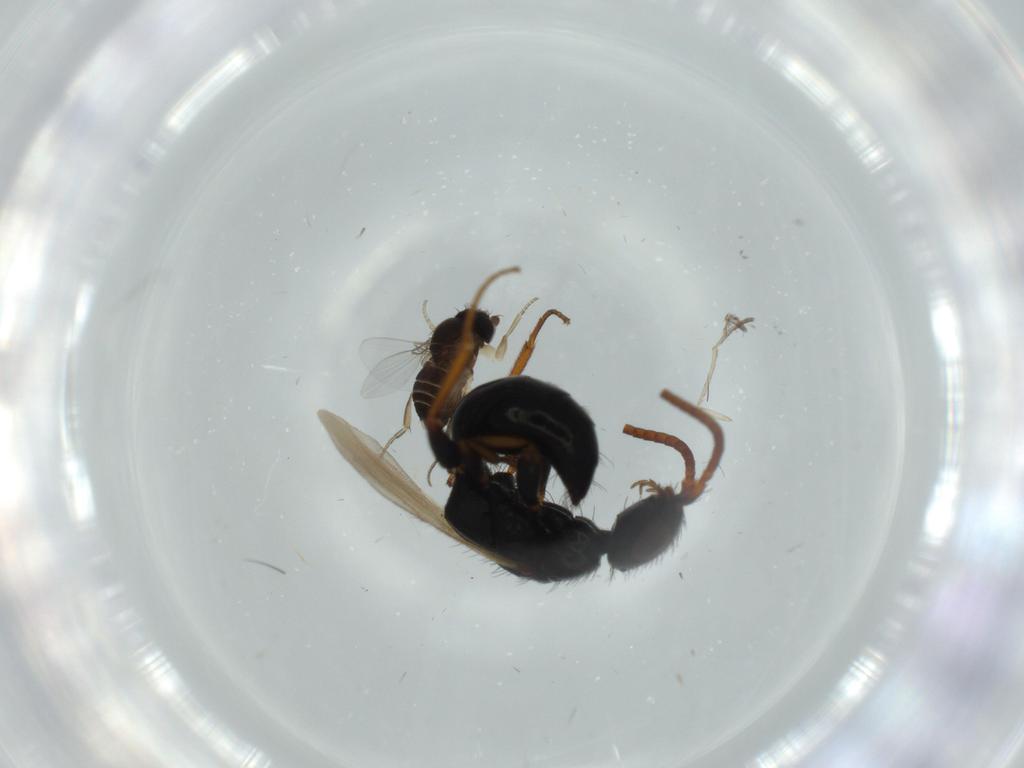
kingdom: Animalia
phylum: Arthropoda
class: Insecta
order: Hymenoptera
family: Bethylidae
